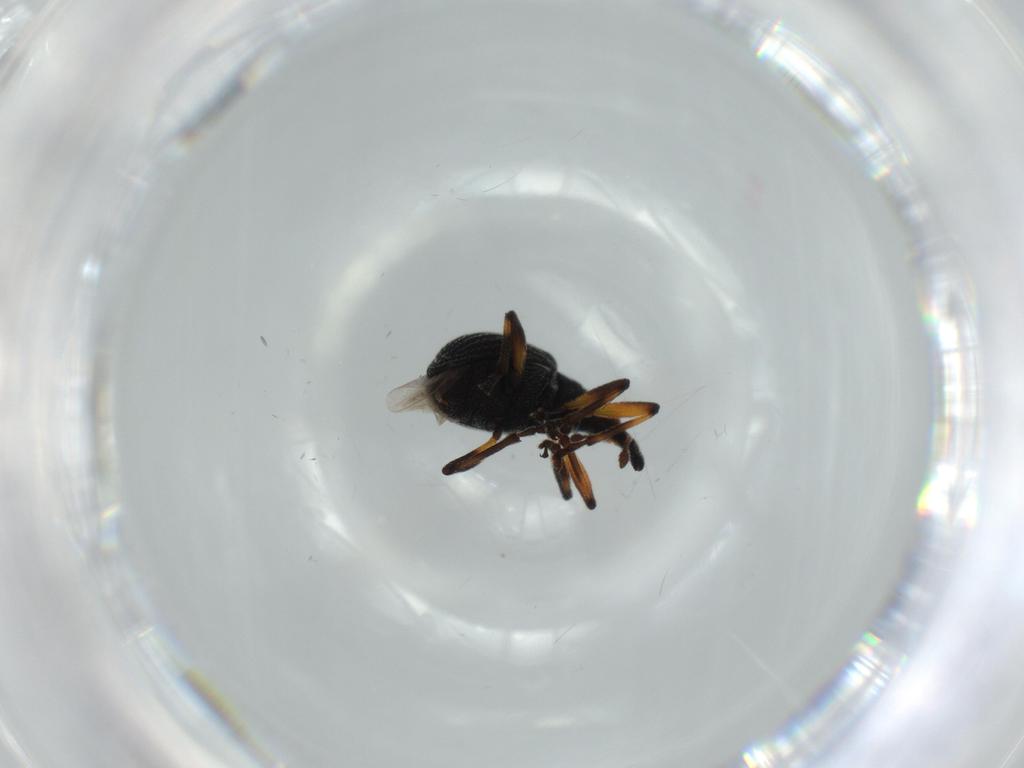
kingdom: Animalia
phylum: Arthropoda
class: Insecta
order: Coleoptera
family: Brentidae
